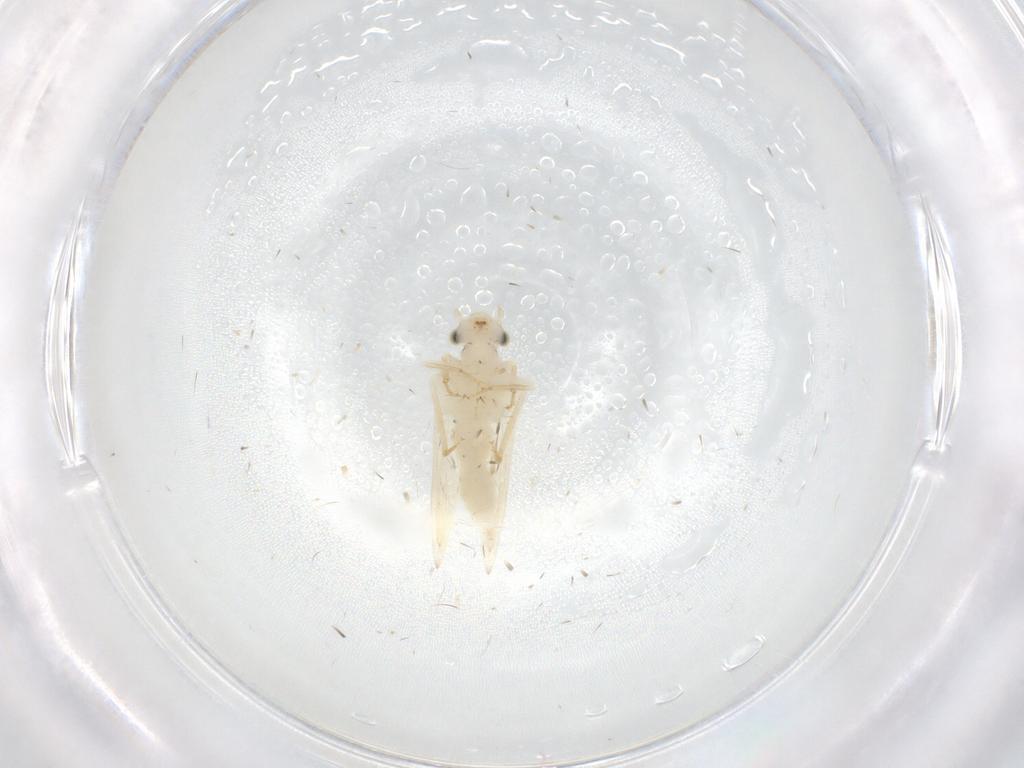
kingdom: Animalia
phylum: Arthropoda
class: Insecta
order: Psocodea
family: Lepidopsocidae
